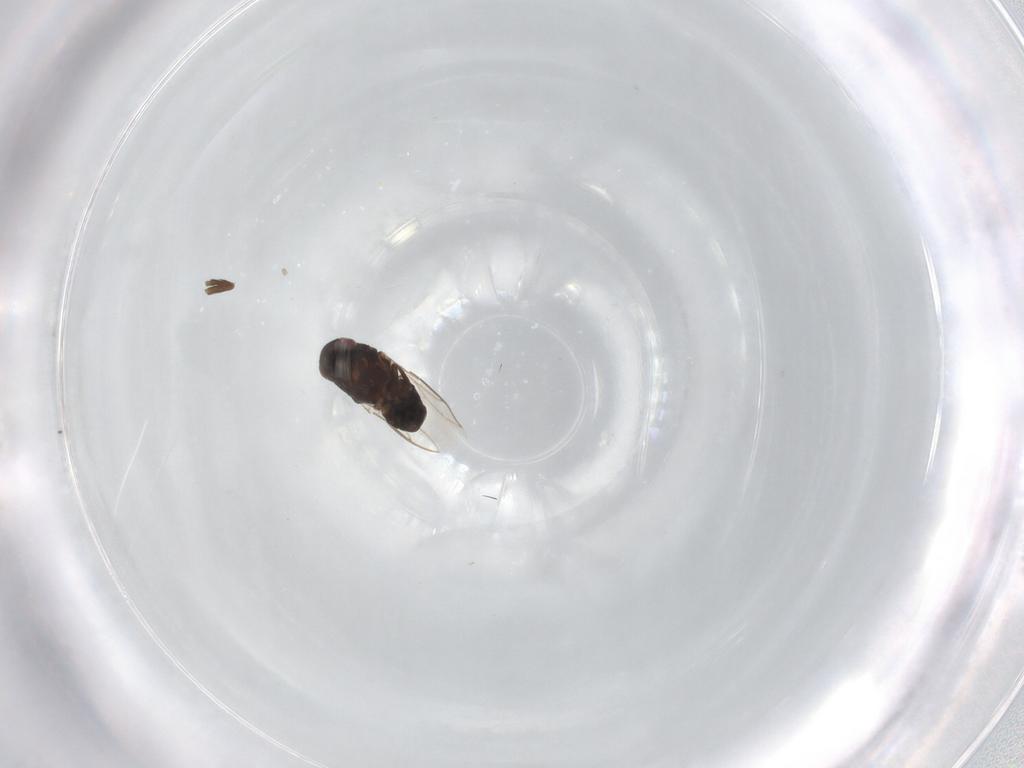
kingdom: Animalia
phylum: Arthropoda
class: Insecta
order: Diptera
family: Sphaeroceridae
